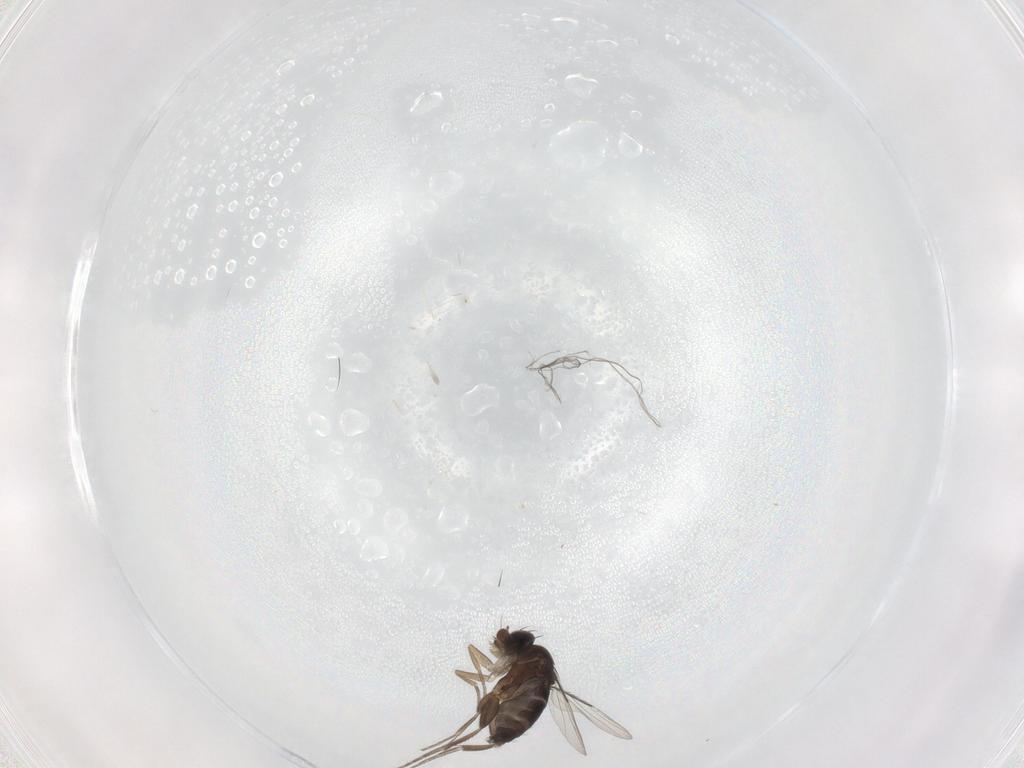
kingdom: Animalia
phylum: Arthropoda
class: Insecta
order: Diptera
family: Phoridae
